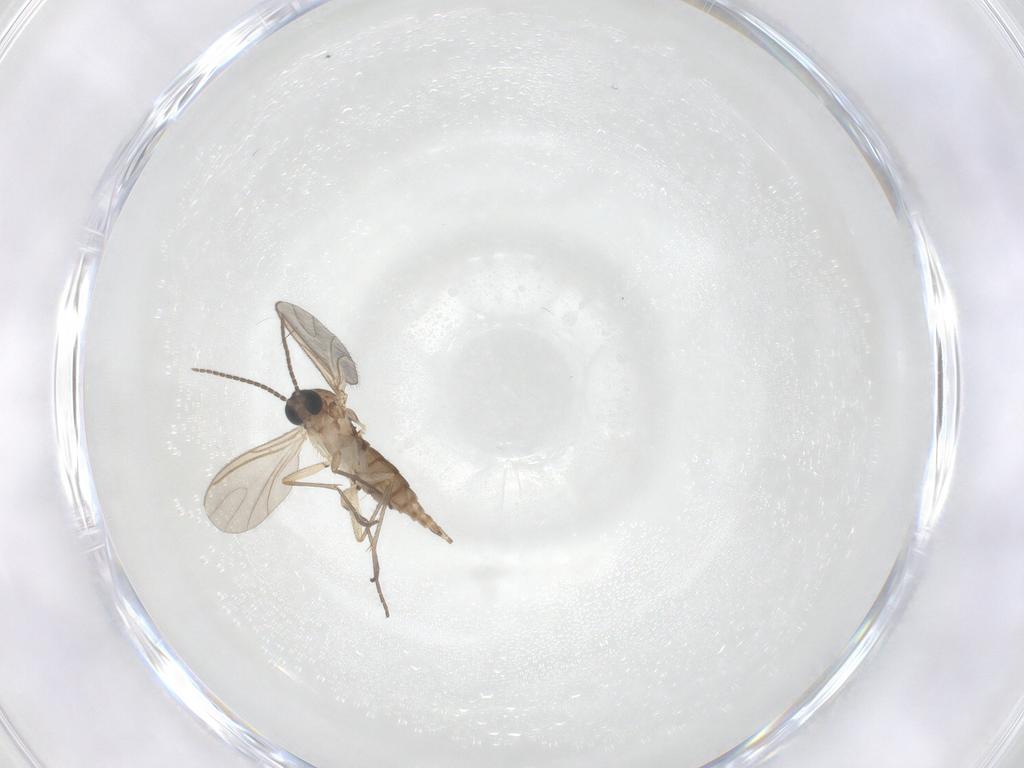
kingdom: Animalia
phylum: Arthropoda
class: Insecta
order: Diptera
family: Sciaridae
